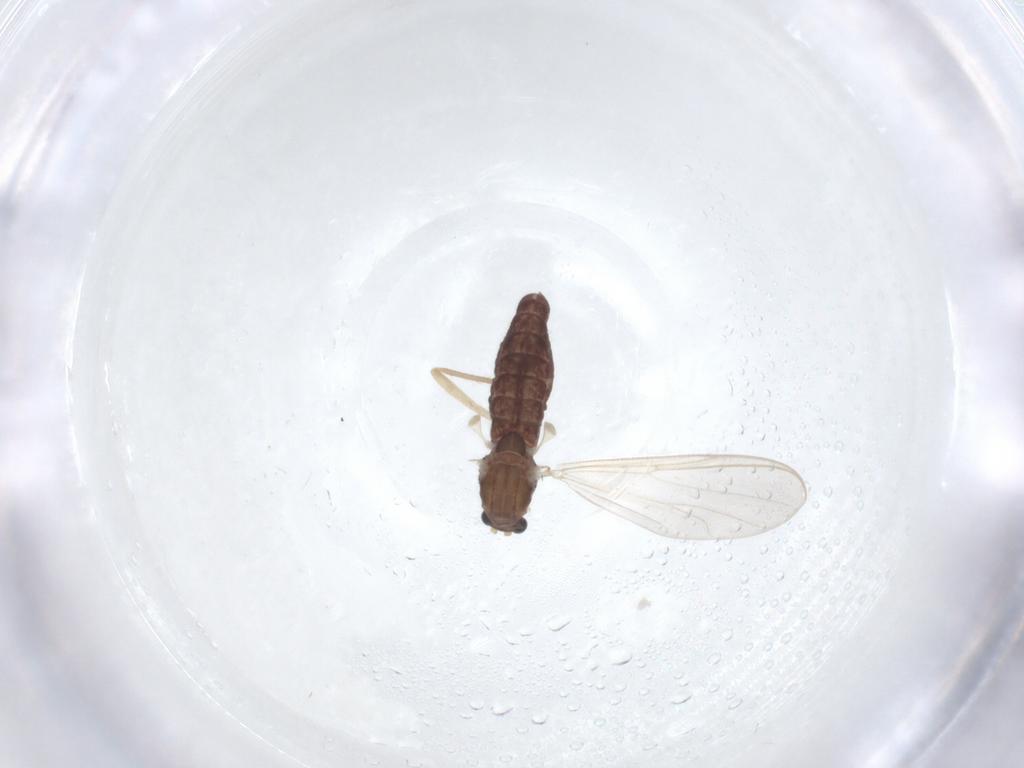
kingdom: Animalia
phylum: Arthropoda
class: Insecta
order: Diptera
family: Chironomidae
